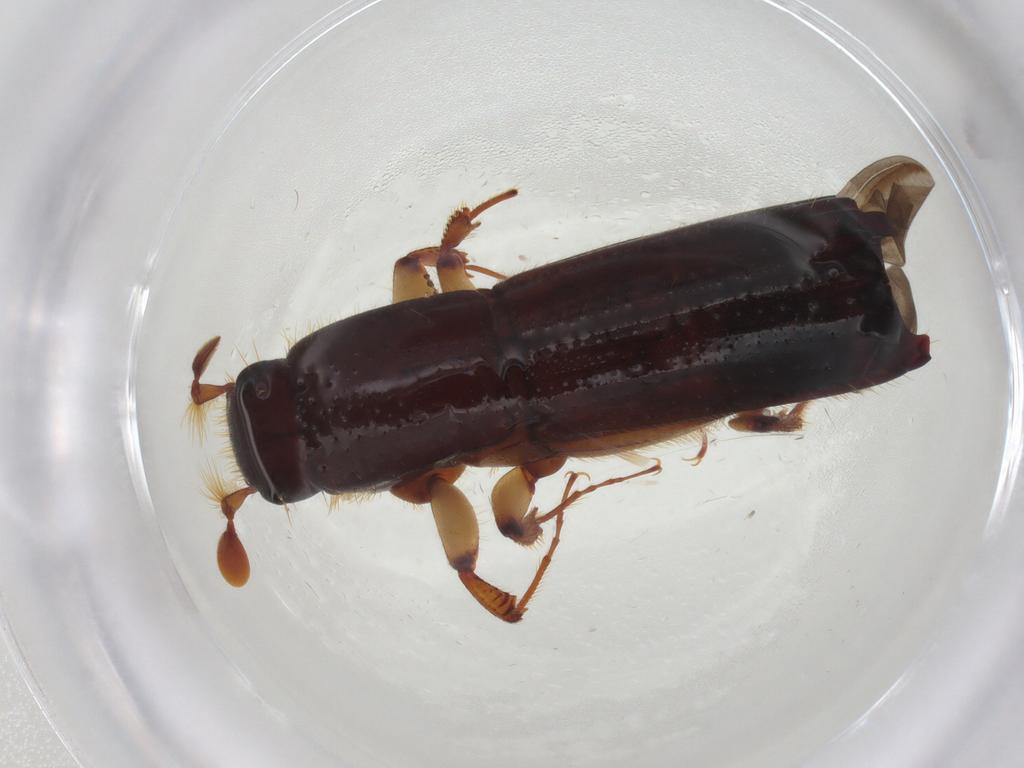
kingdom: Animalia
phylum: Arthropoda
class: Insecta
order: Coleoptera
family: Curculionidae
